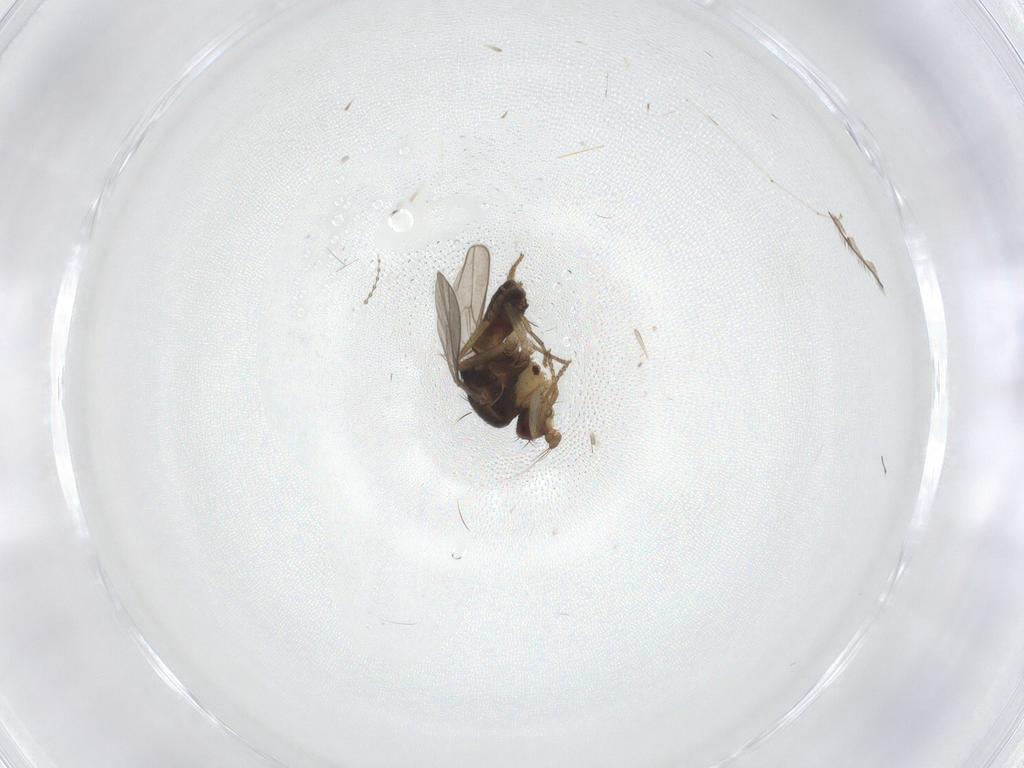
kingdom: Animalia
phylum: Arthropoda
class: Insecta
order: Diptera
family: Cecidomyiidae
